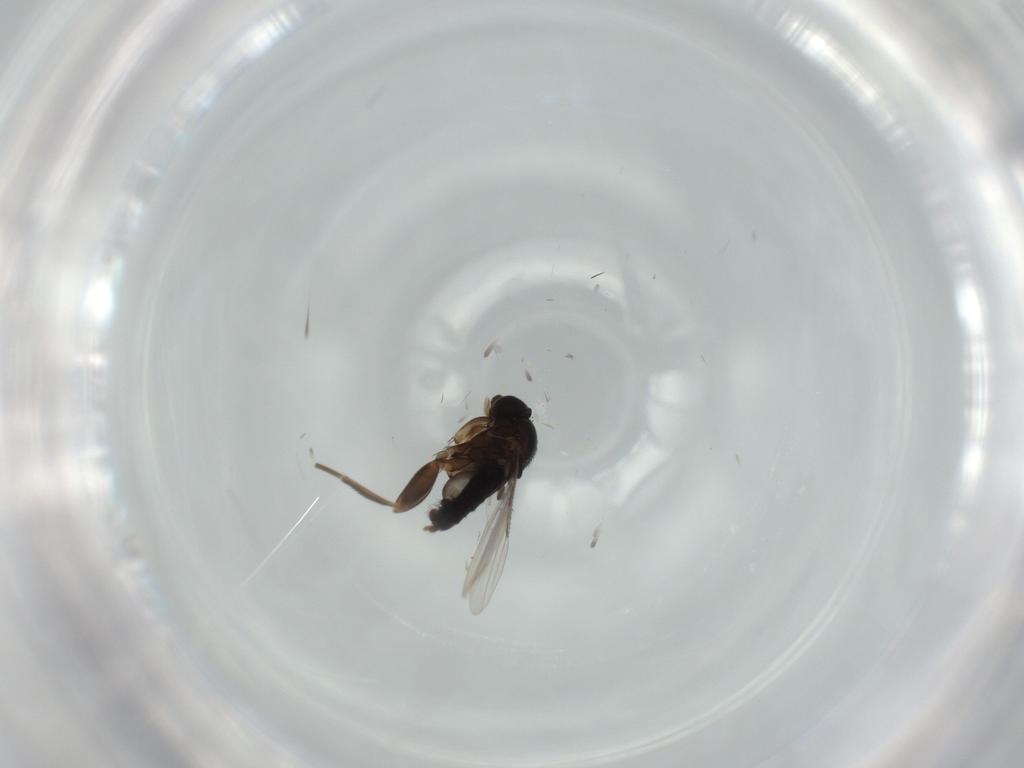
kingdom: Animalia
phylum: Arthropoda
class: Insecta
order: Diptera
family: Phoridae
